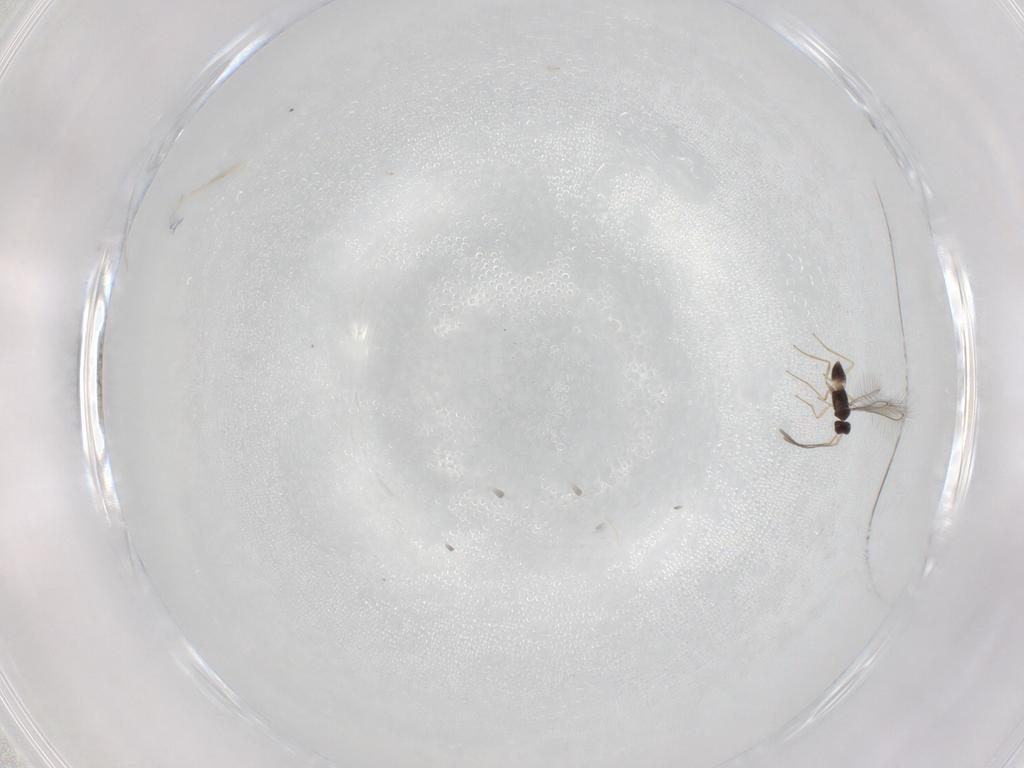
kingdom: Animalia
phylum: Arthropoda
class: Insecta
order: Hymenoptera
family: Mymaridae
